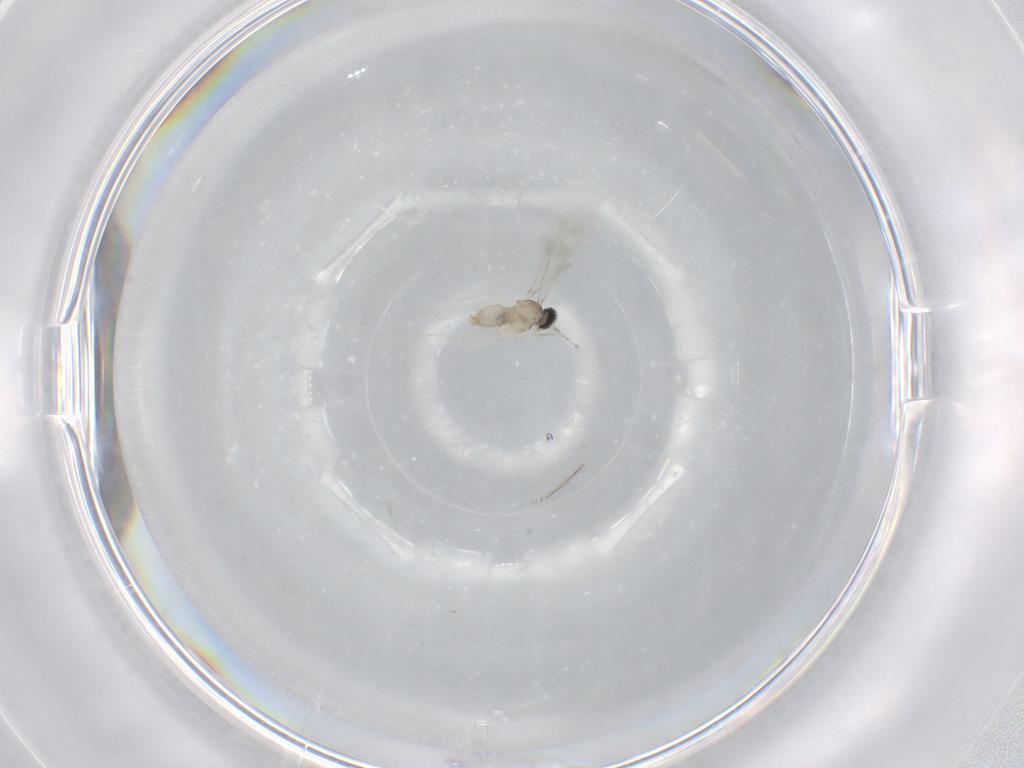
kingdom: Animalia
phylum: Arthropoda
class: Insecta
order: Diptera
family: Cecidomyiidae
